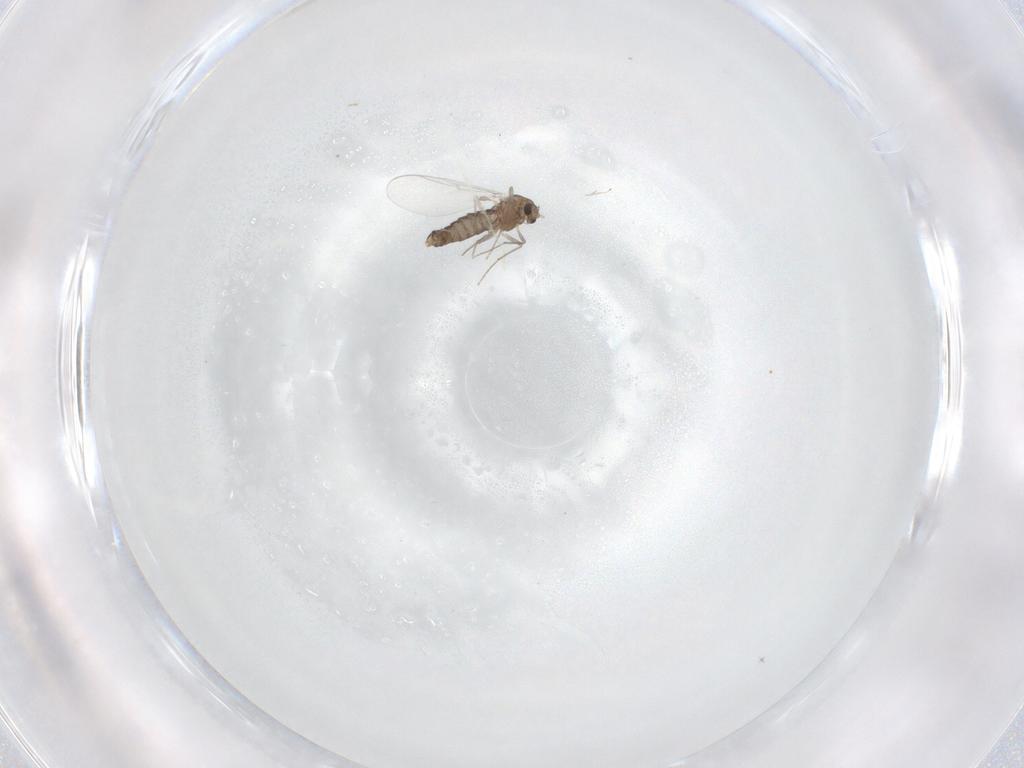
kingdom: Animalia
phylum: Arthropoda
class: Insecta
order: Diptera
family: Chironomidae
